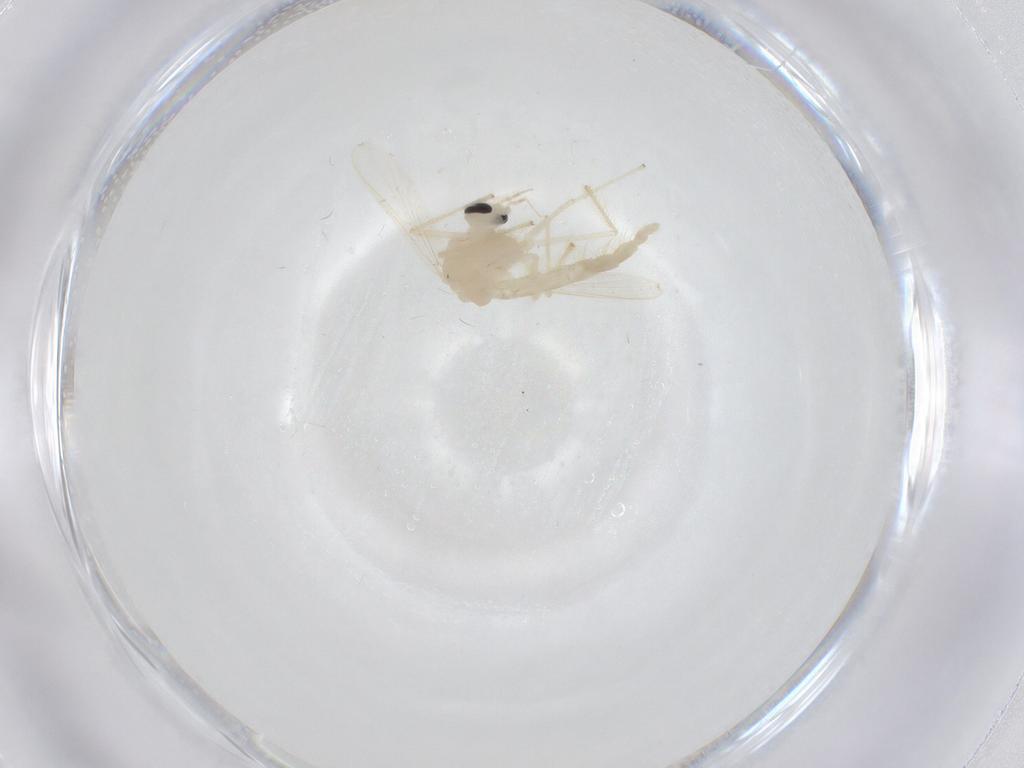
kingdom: Animalia
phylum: Arthropoda
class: Insecta
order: Diptera
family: Chironomidae
